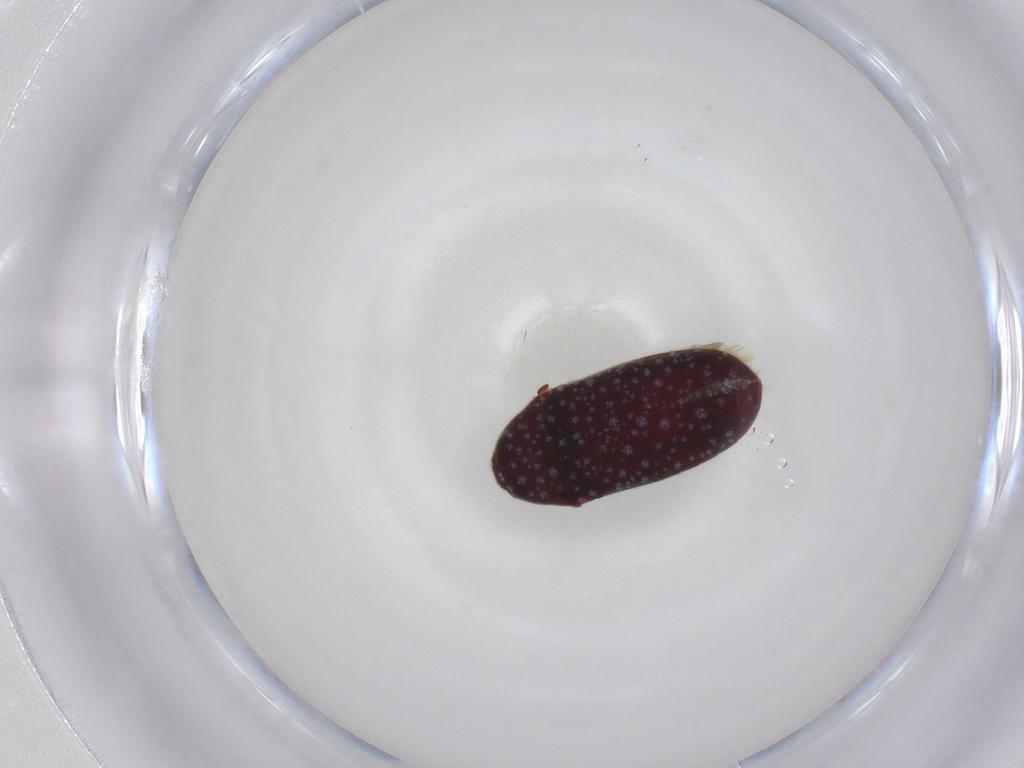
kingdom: Animalia
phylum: Arthropoda
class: Insecta
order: Coleoptera
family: Throscidae
